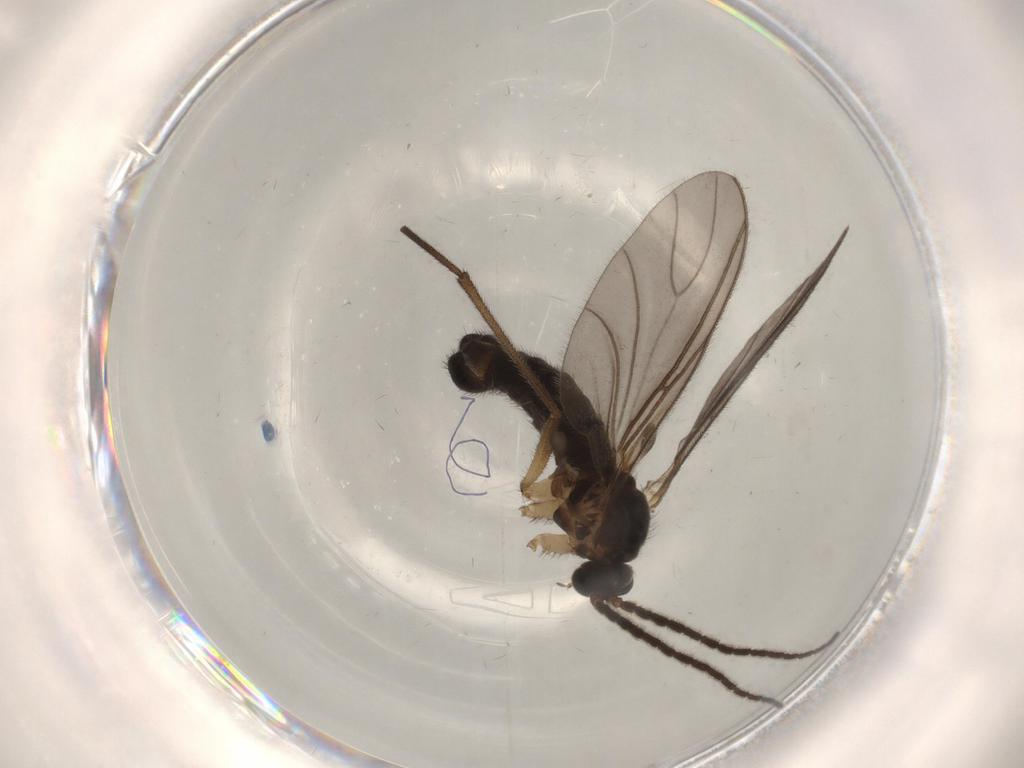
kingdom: Animalia
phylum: Arthropoda
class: Insecta
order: Diptera
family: Sciaridae
